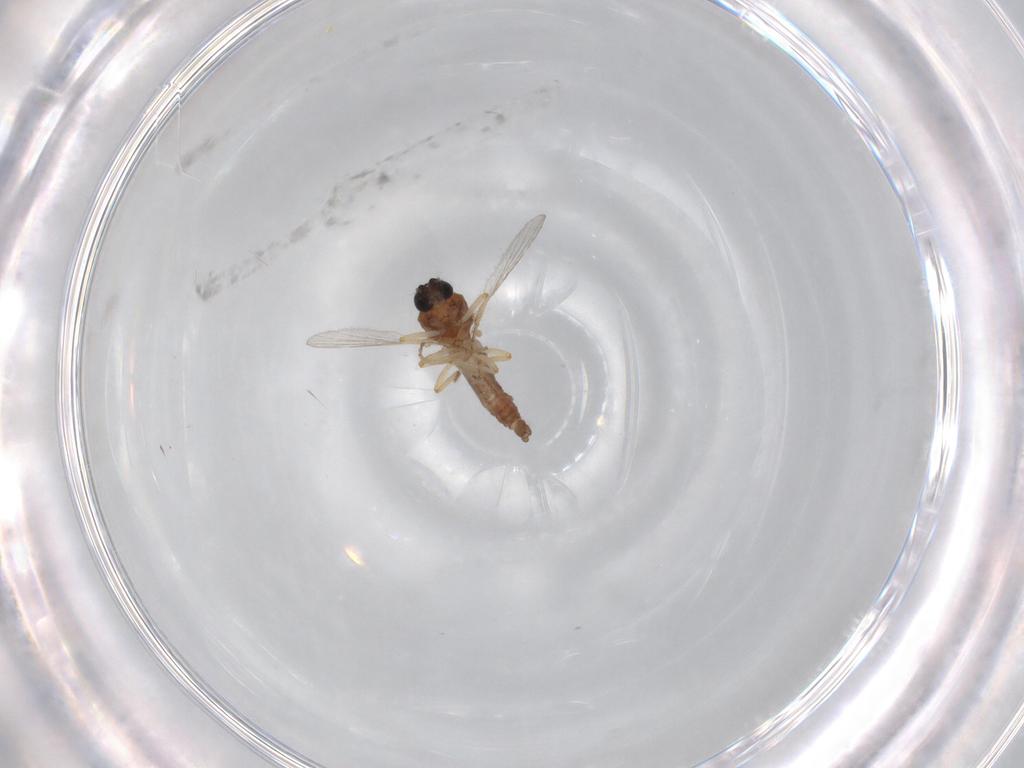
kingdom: Animalia
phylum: Arthropoda
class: Insecta
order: Diptera
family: Ceratopogonidae
